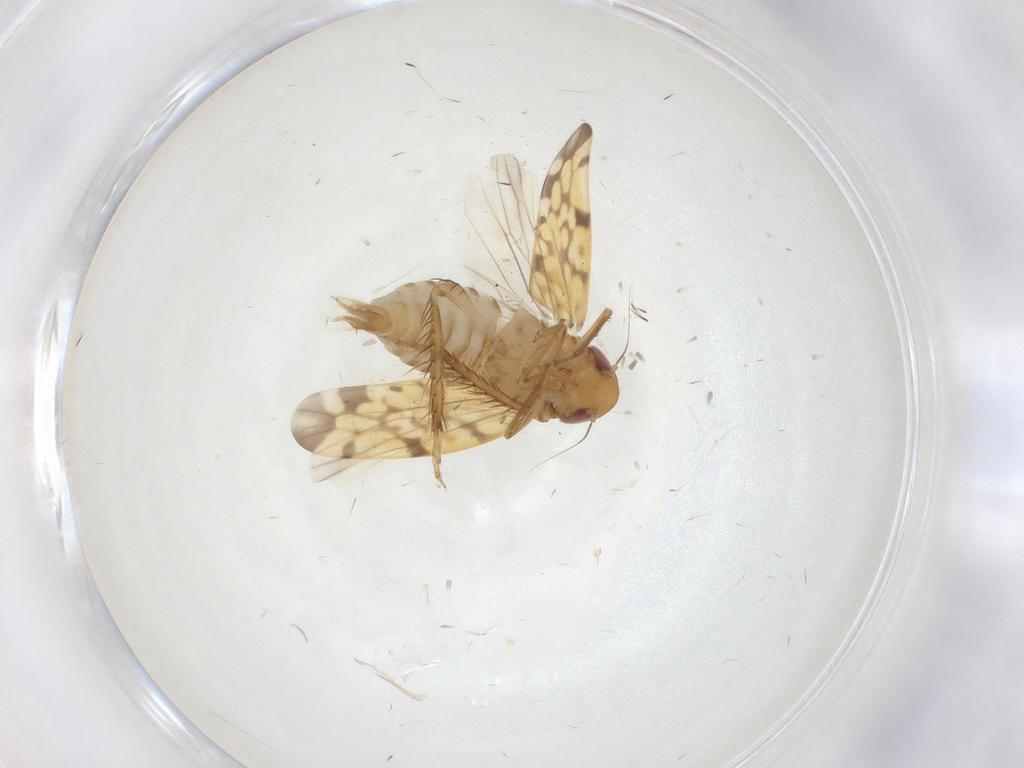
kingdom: Animalia
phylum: Arthropoda
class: Insecta
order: Hemiptera
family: Cicadellidae
